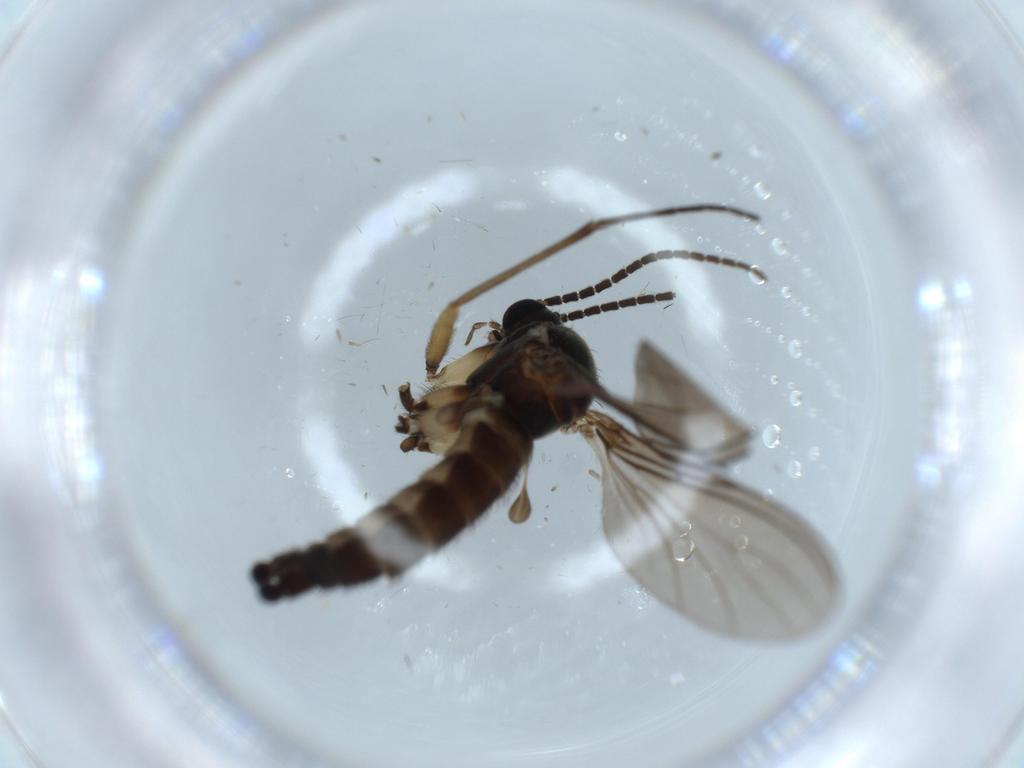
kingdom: Animalia
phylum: Arthropoda
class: Insecta
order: Diptera
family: Sciaridae
